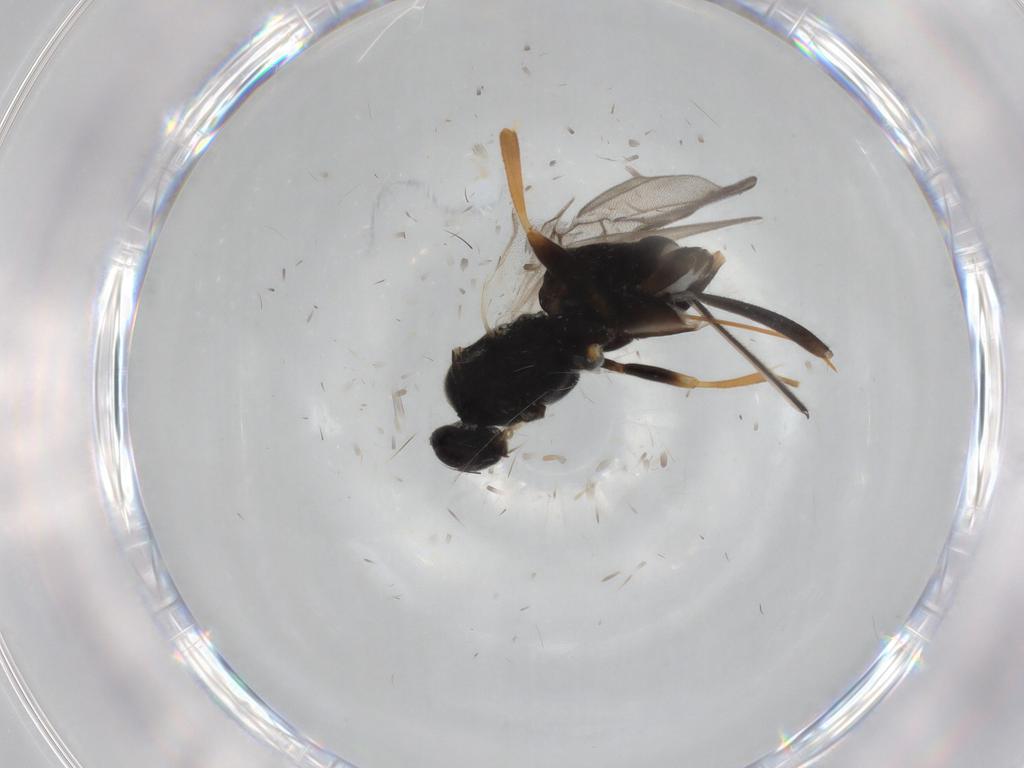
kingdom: Animalia
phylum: Arthropoda
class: Insecta
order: Hymenoptera
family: Braconidae
